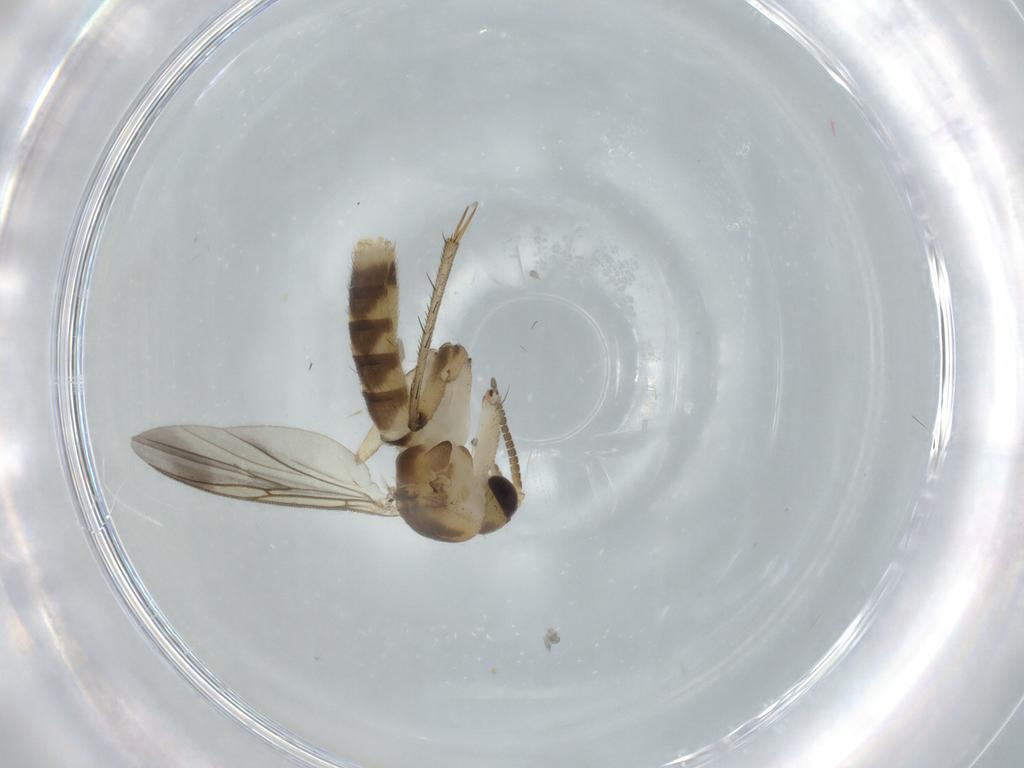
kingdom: Animalia
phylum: Arthropoda
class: Insecta
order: Diptera
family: Mycetophilidae
